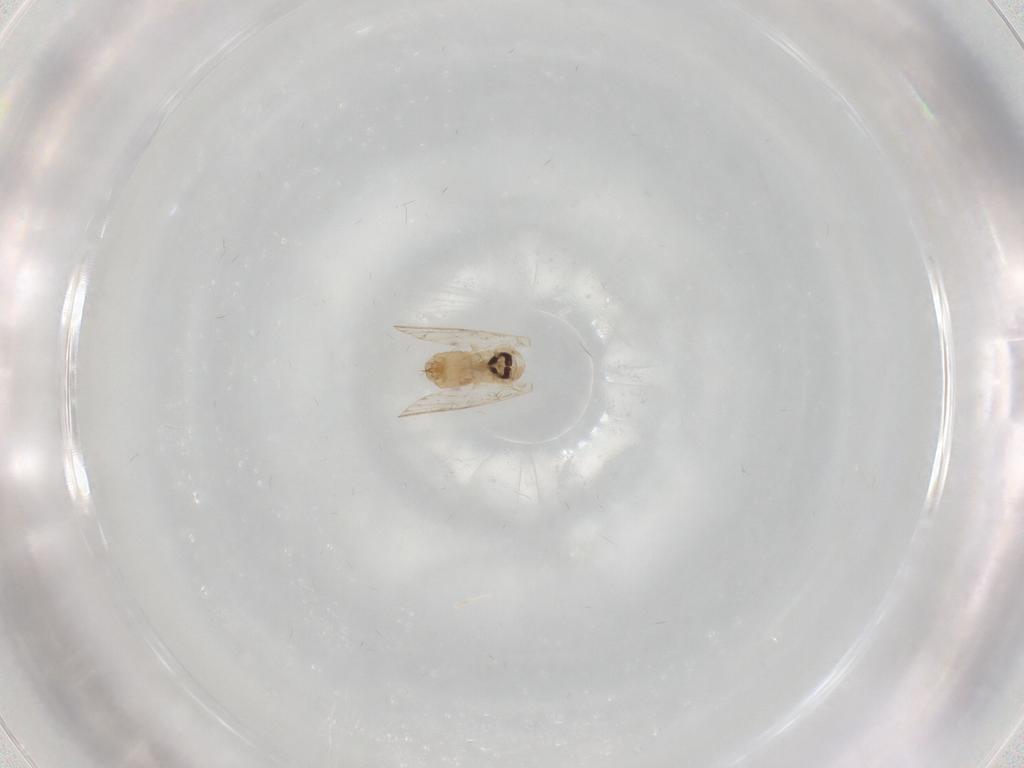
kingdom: Animalia
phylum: Arthropoda
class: Insecta
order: Diptera
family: Psychodidae
